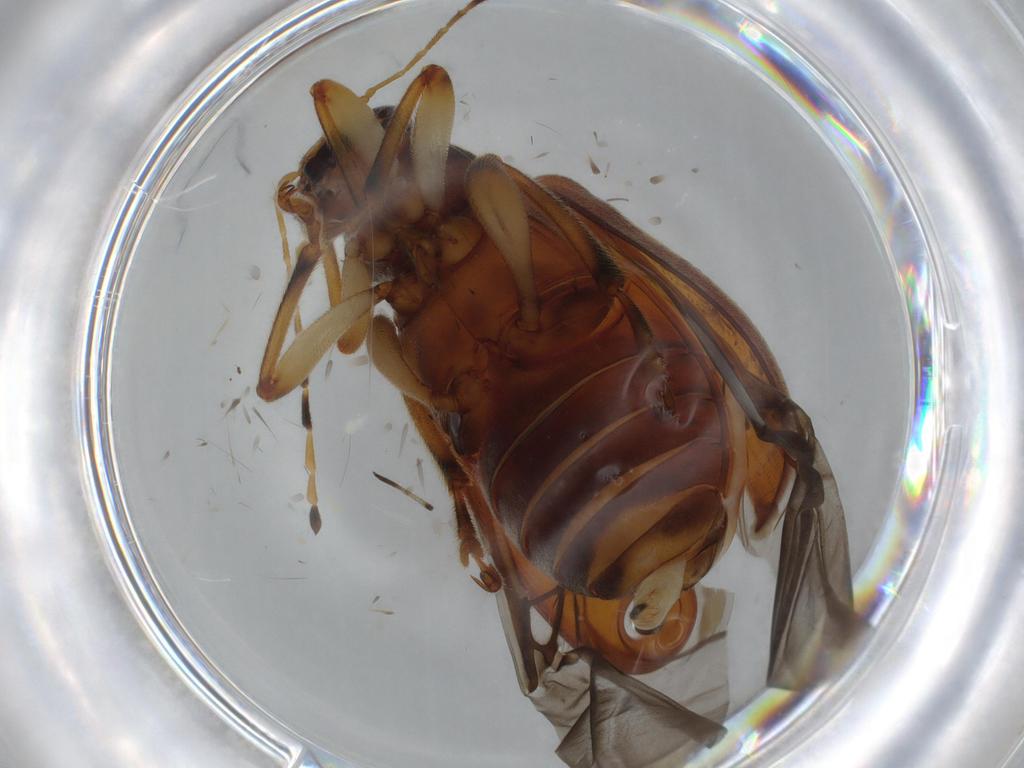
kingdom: Animalia
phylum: Arthropoda
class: Insecta
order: Coleoptera
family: Chrysomelidae
